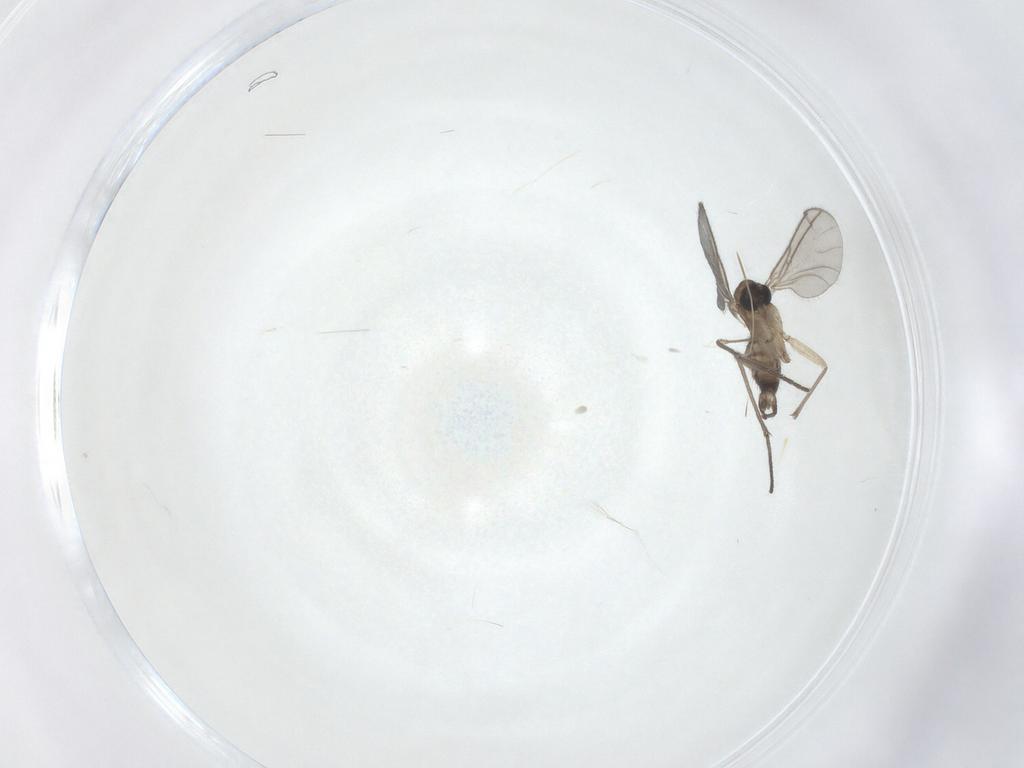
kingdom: Animalia
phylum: Arthropoda
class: Insecta
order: Diptera
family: Sciaridae
